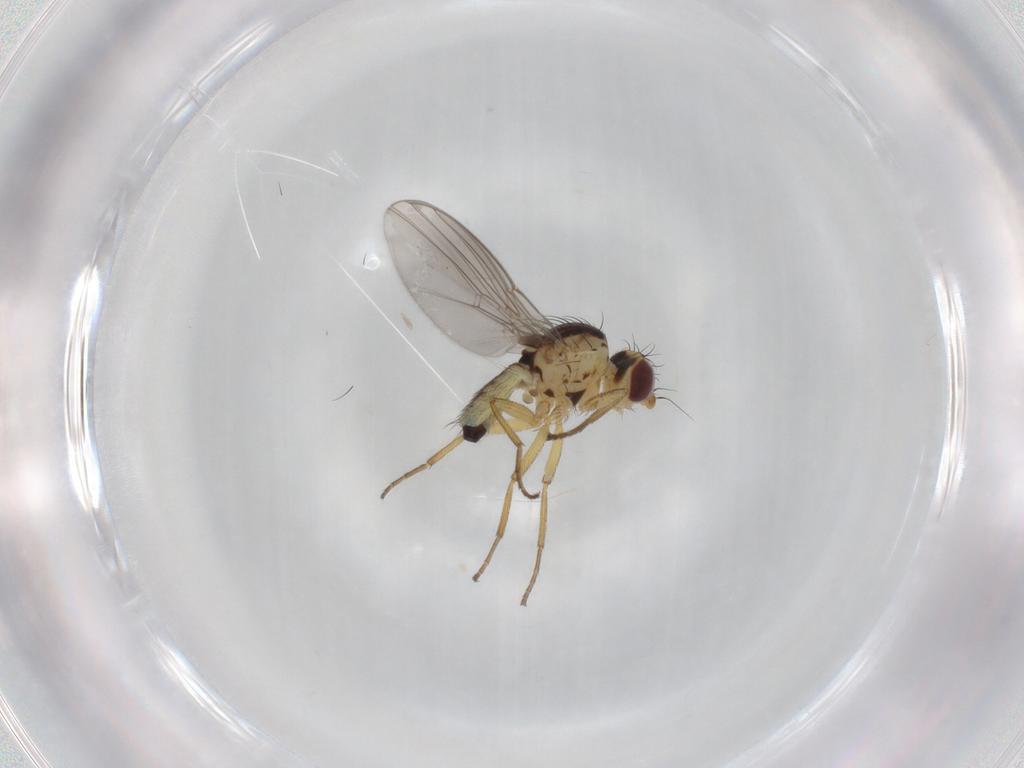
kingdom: Animalia
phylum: Arthropoda
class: Insecta
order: Diptera
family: Agromyzidae
